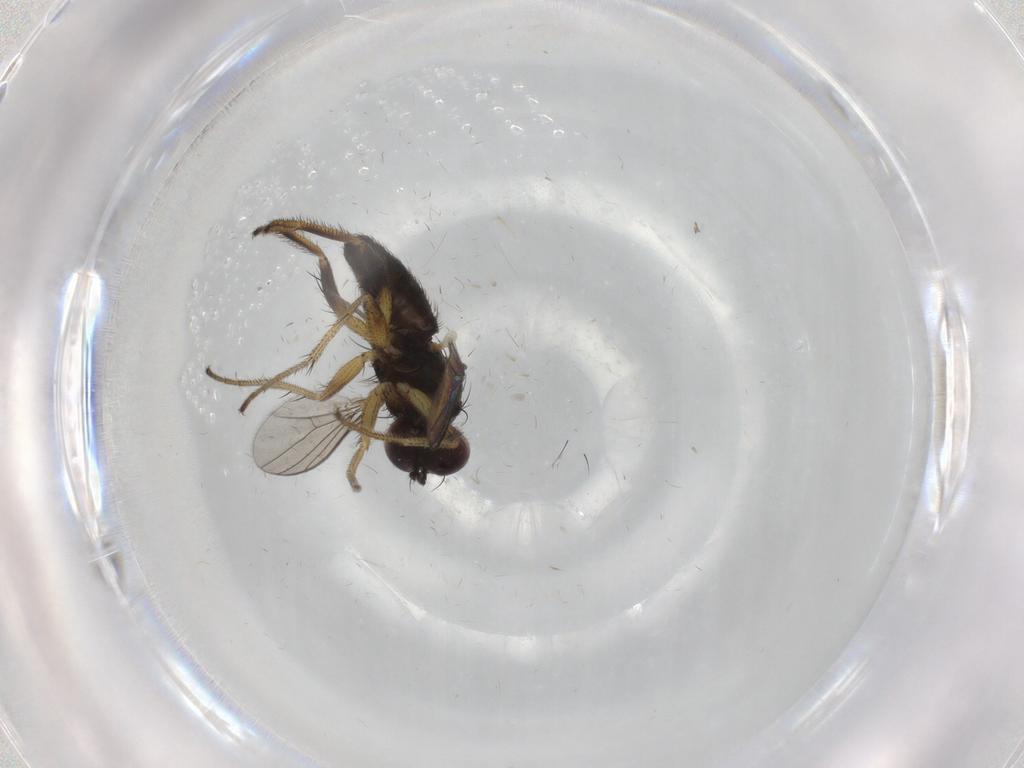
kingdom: Animalia
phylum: Arthropoda
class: Insecta
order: Diptera
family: Dolichopodidae
